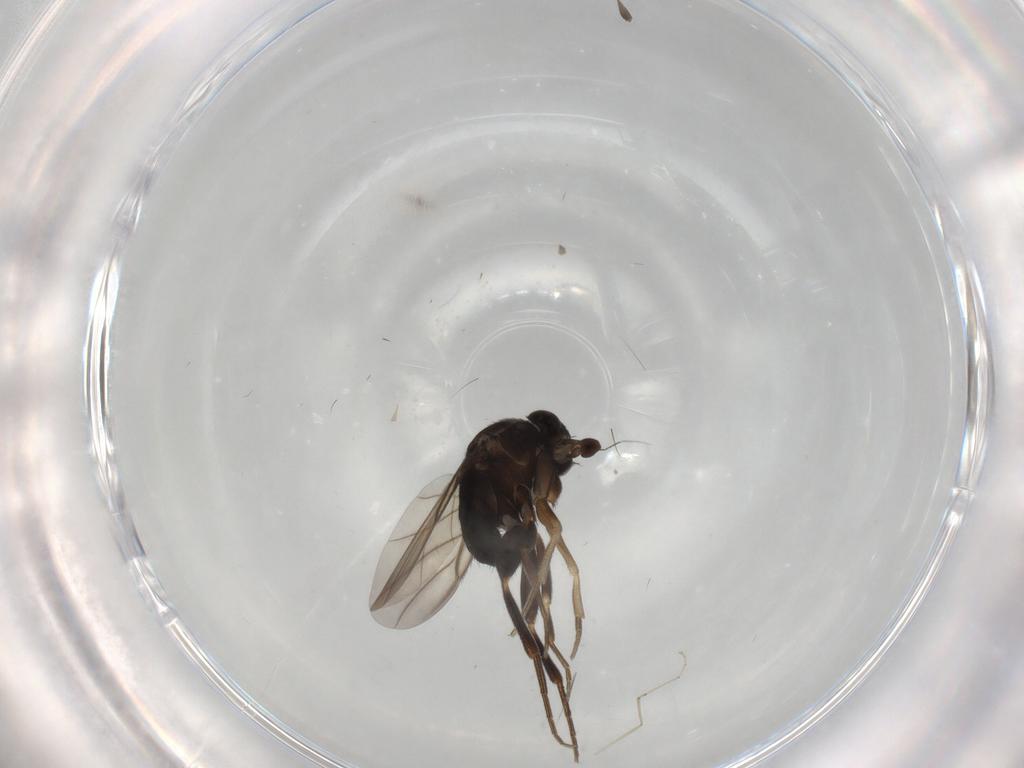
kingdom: Animalia
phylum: Arthropoda
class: Insecta
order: Diptera
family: Cecidomyiidae
